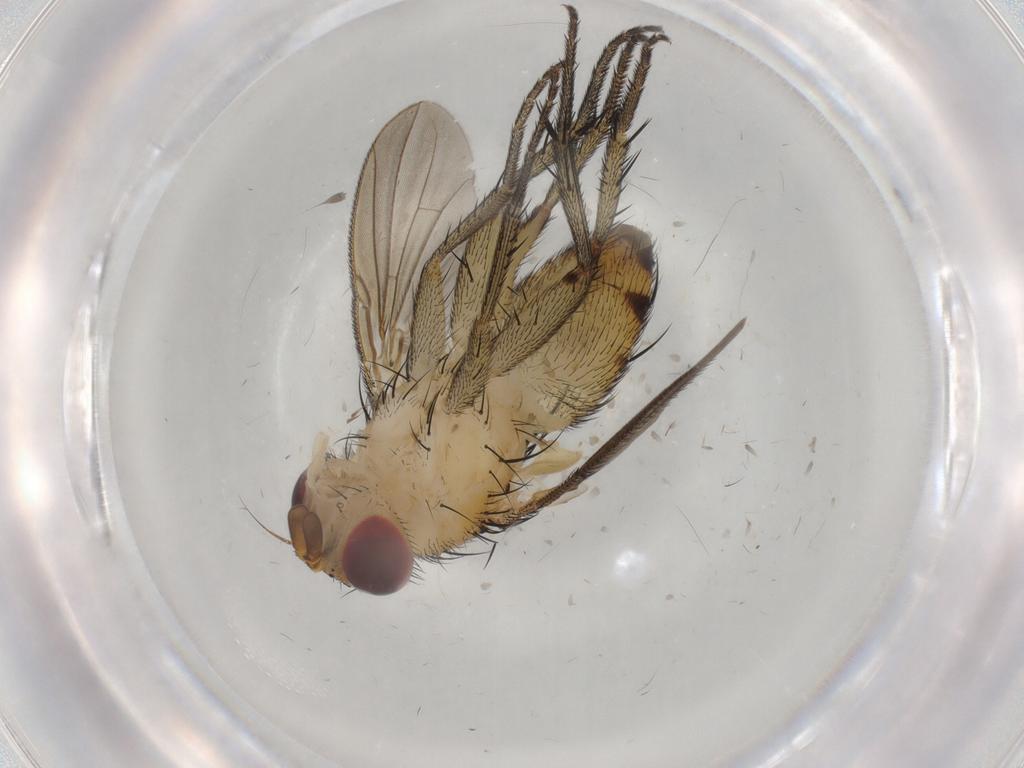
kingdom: Animalia
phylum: Arthropoda
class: Insecta
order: Diptera
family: Tachinidae
